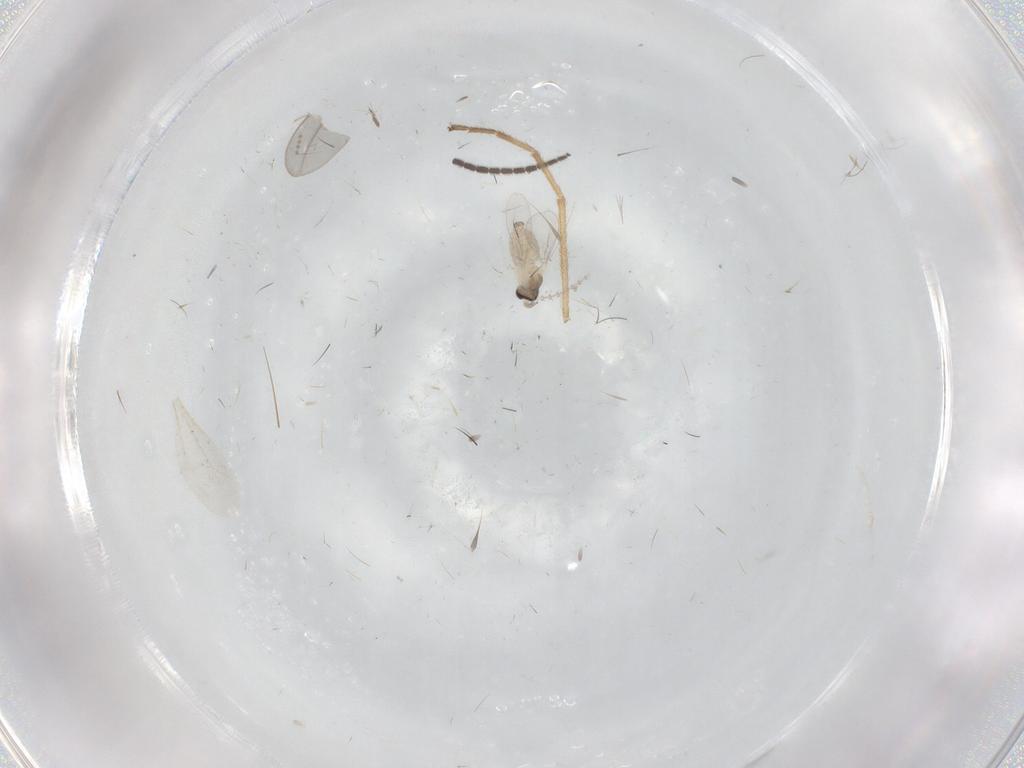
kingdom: Animalia
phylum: Arthropoda
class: Insecta
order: Diptera
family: Cecidomyiidae
